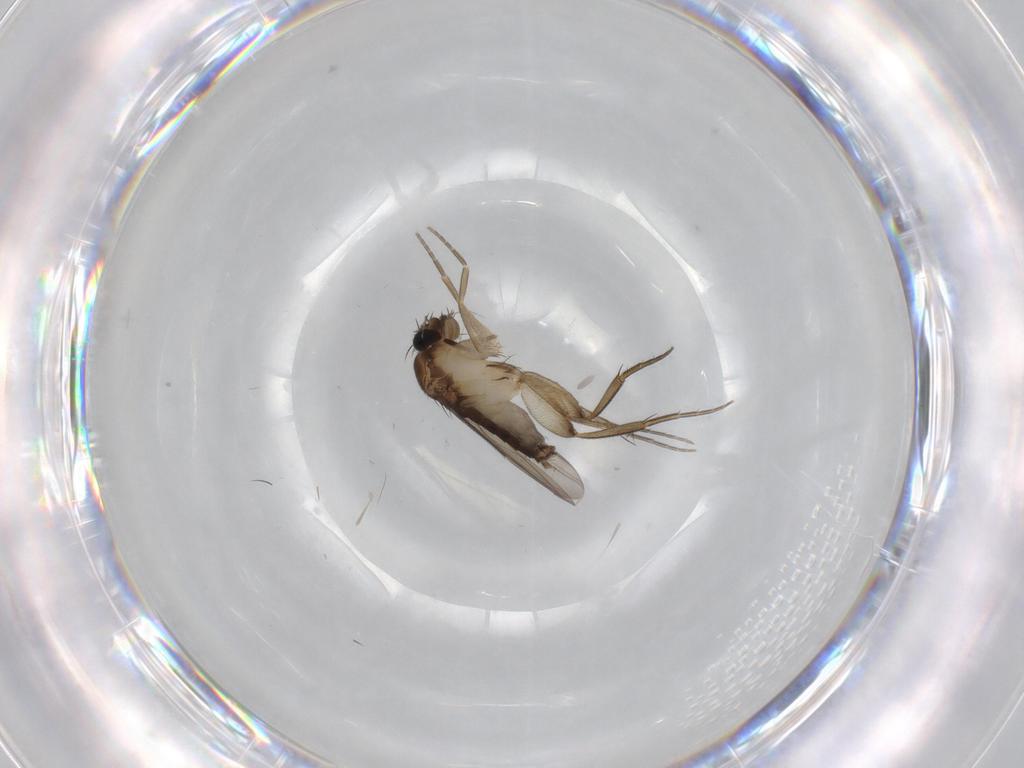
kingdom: Animalia
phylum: Arthropoda
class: Insecta
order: Diptera
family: Phoridae
